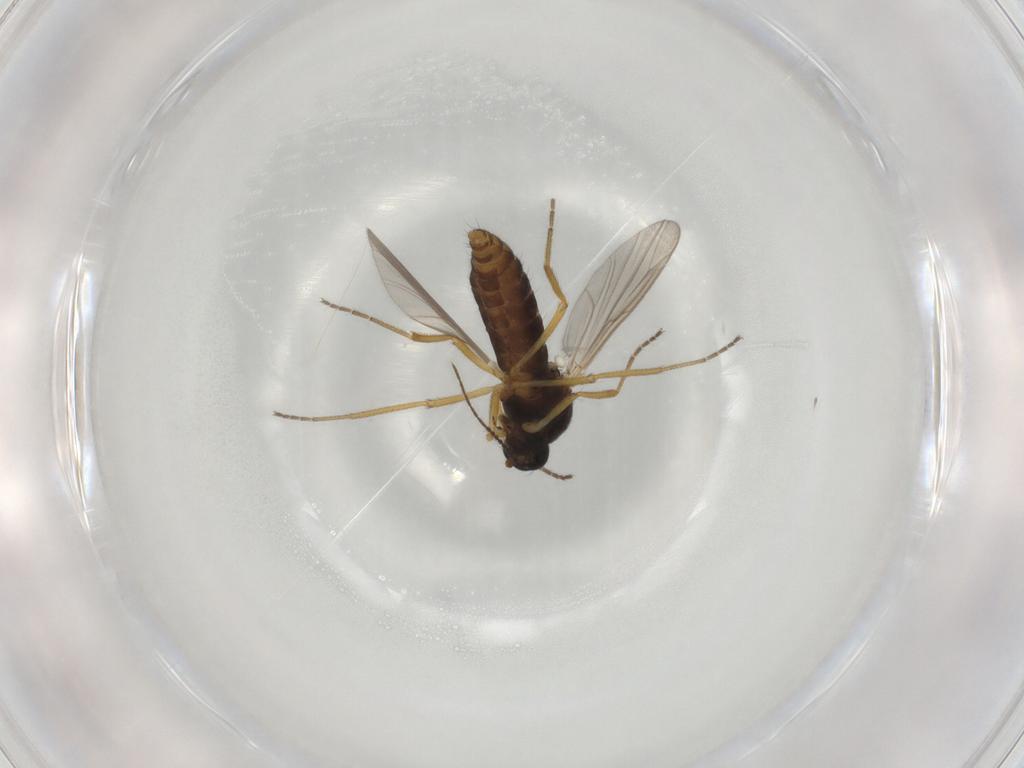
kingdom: Animalia
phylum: Arthropoda
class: Insecta
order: Diptera
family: Ceratopogonidae
